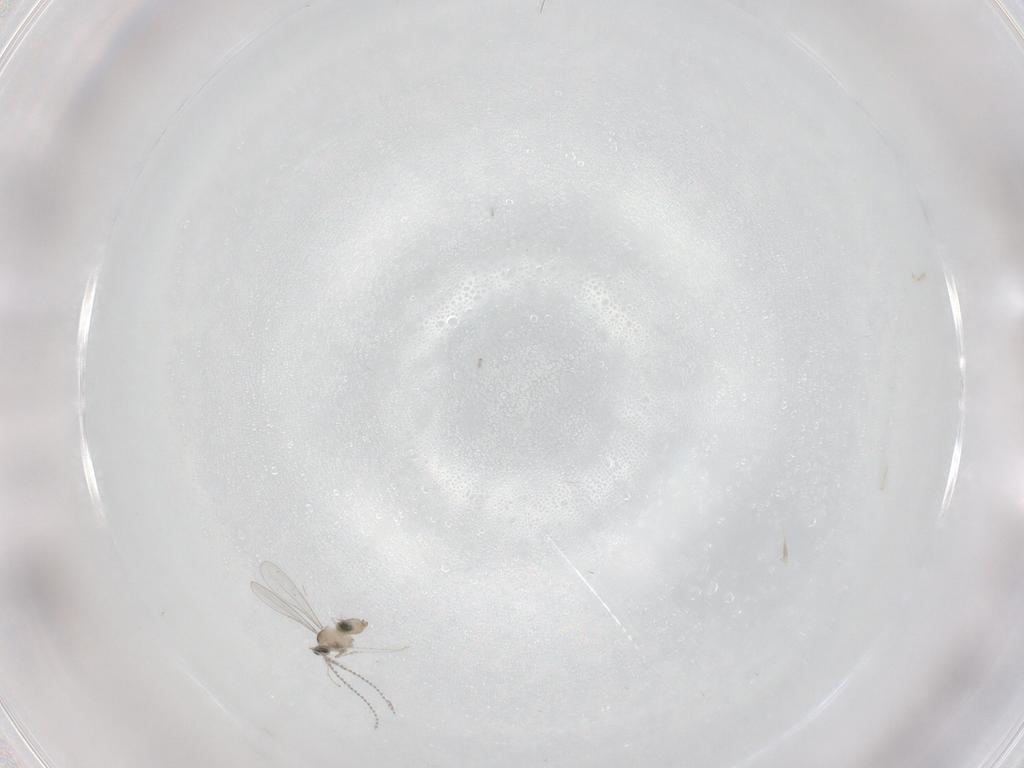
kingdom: Animalia
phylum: Arthropoda
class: Insecta
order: Diptera
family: Cecidomyiidae
